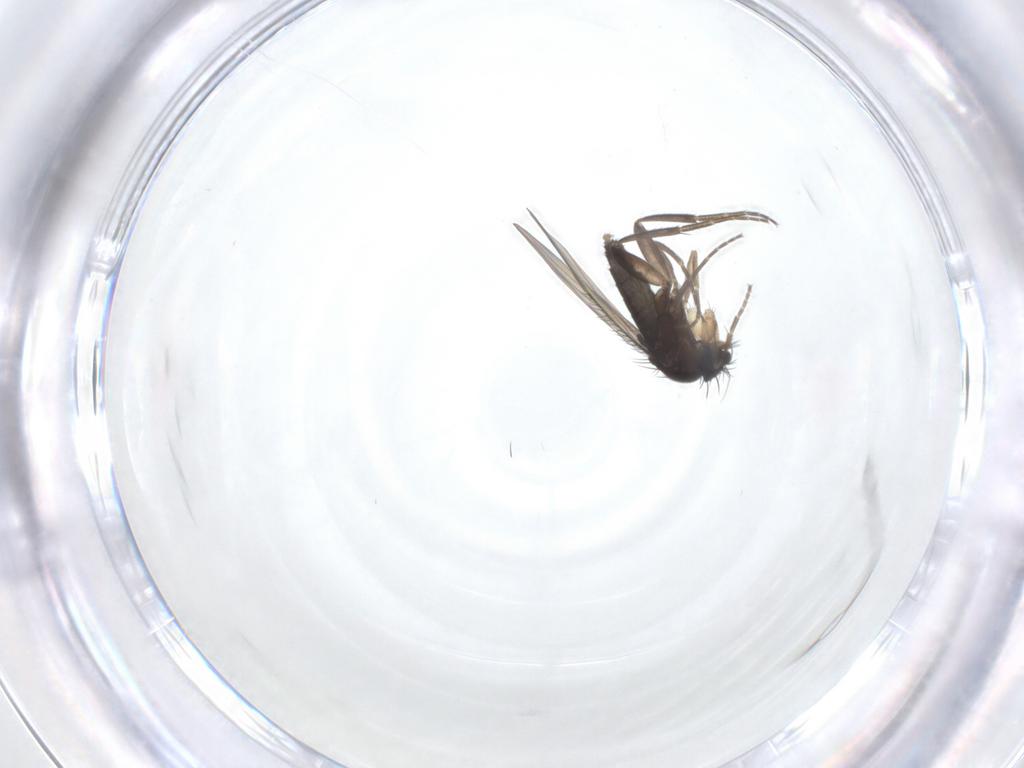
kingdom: Animalia
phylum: Arthropoda
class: Insecta
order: Diptera
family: Phoridae
